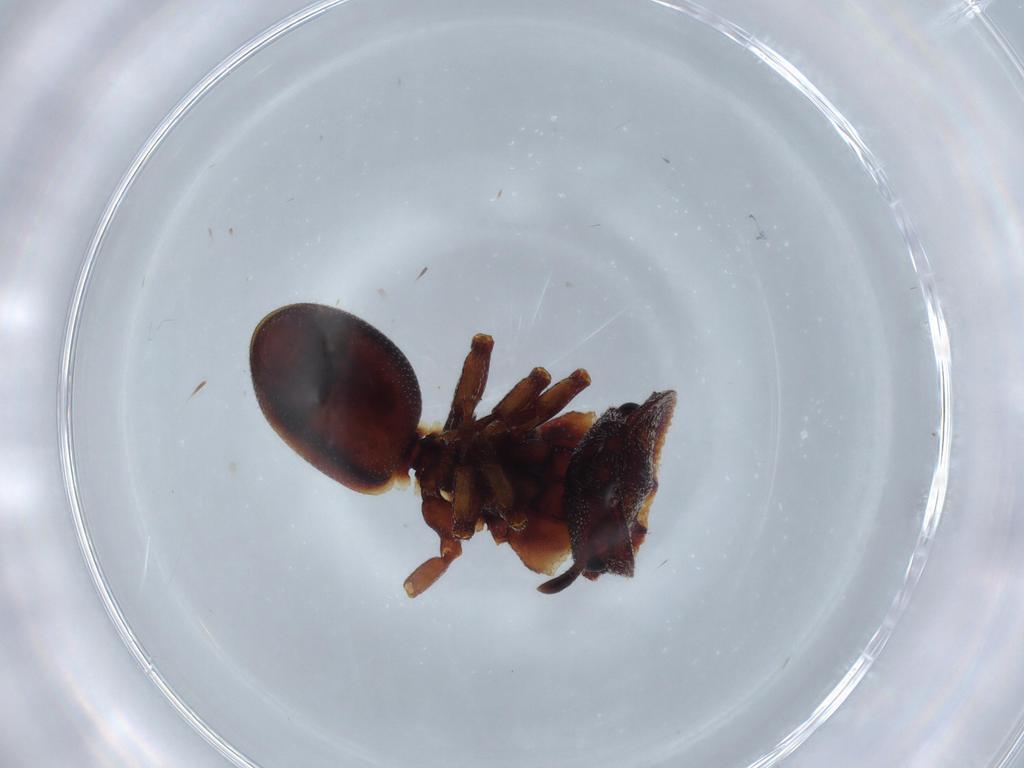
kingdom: Animalia
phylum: Arthropoda
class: Insecta
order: Hymenoptera
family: Formicidae
